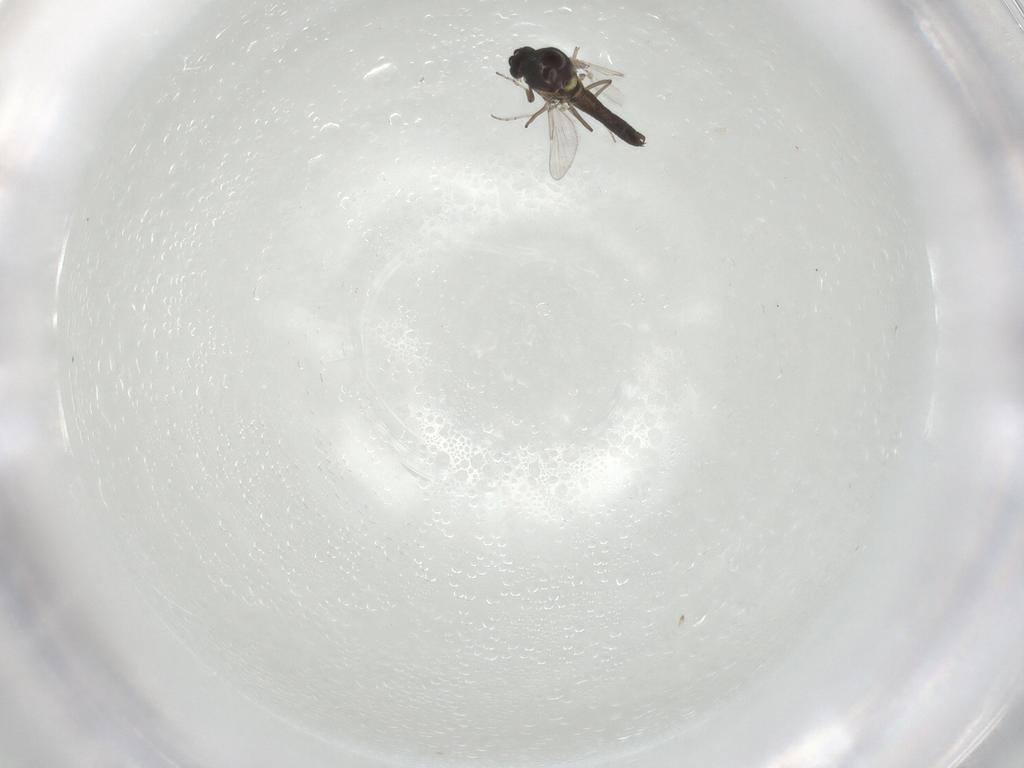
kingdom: Animalia
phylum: Arthropoda
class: Insecta
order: Diptera
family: Ceratopogonidae
